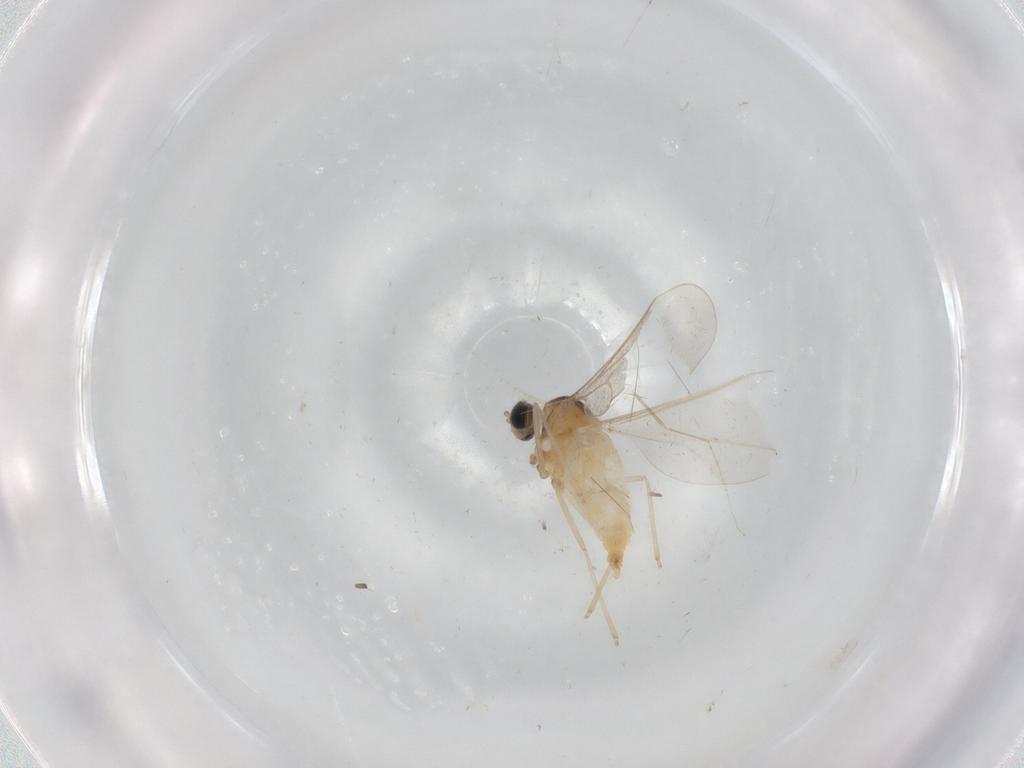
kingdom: Animalia
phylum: Arthropoda
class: Insecta
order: Diptera
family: Cecidomyiidae
